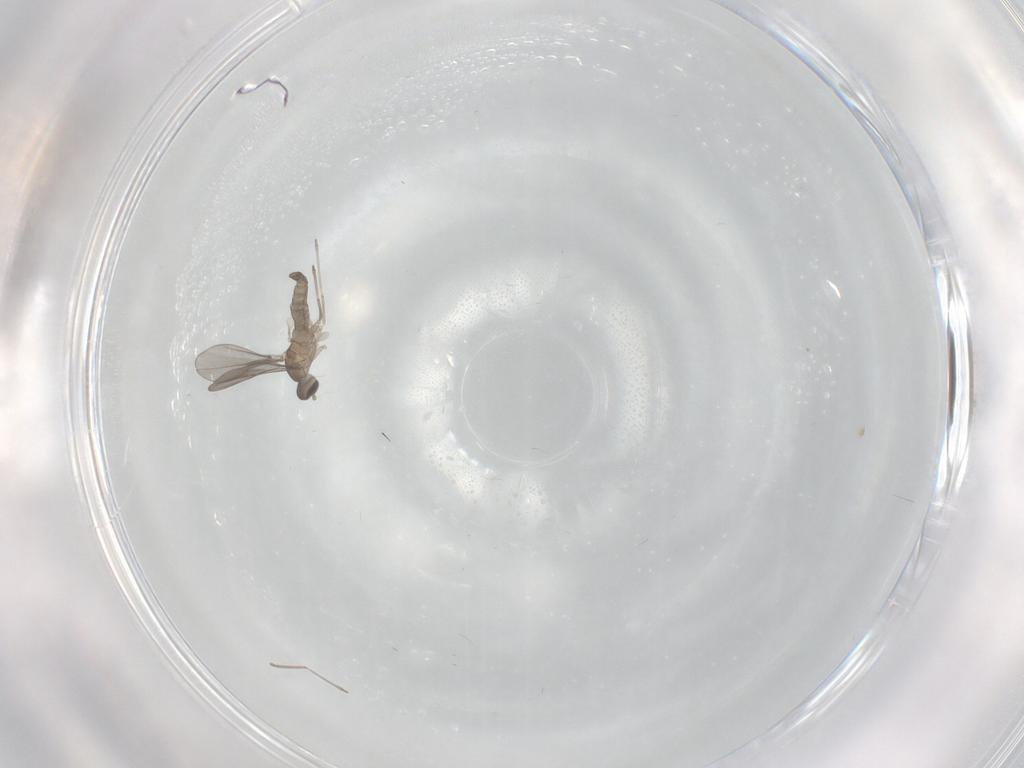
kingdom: Animalia
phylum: Arthropoda
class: Insecta
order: Diptera
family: Cecidomyiidae
